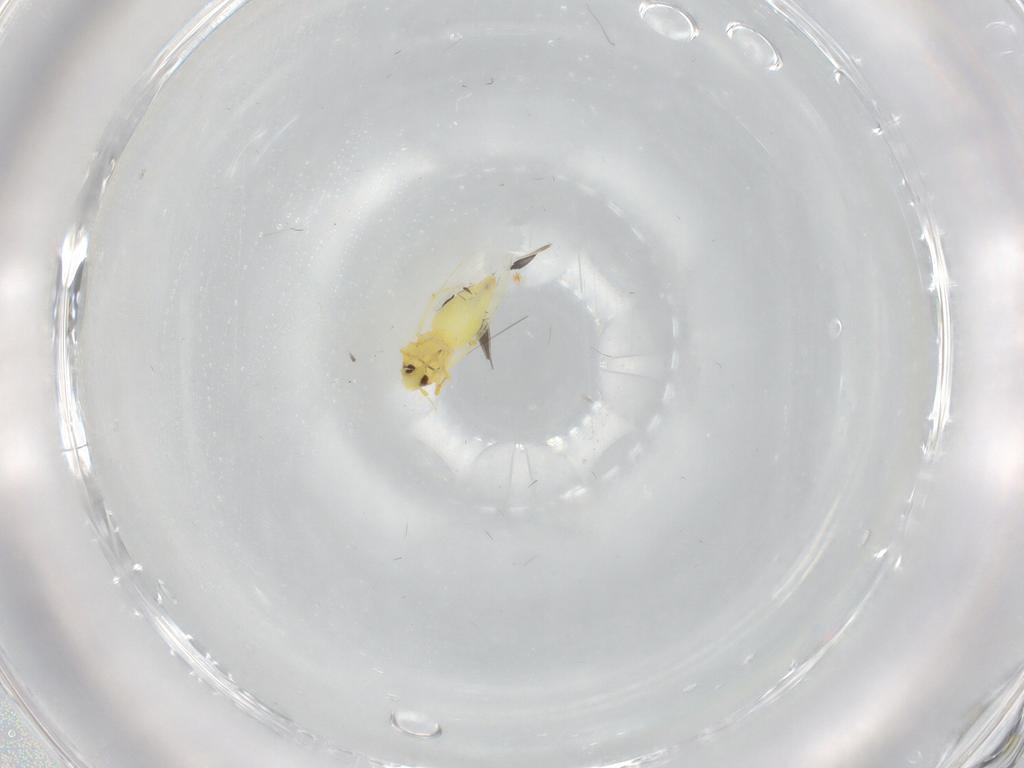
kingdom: Animalia
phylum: Arthropoda
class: Insecta
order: Hemiptera
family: Aleyrodidae
